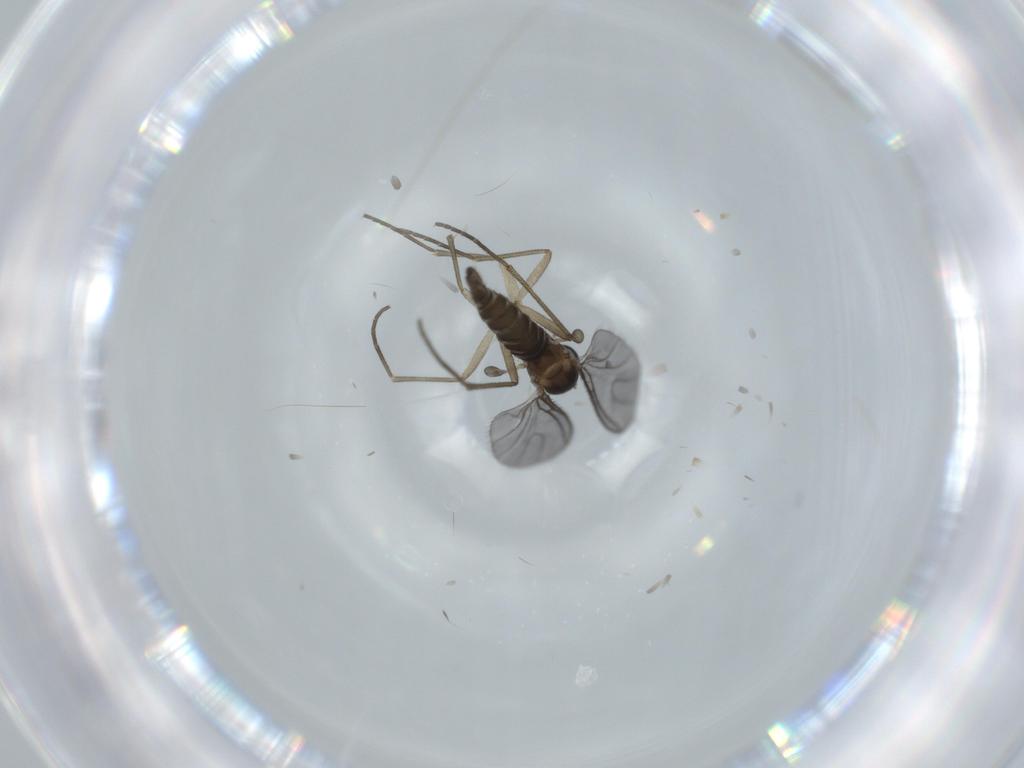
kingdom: Animalia
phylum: Arthropoda
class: Insecta
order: Diptera
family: Sciaridae
